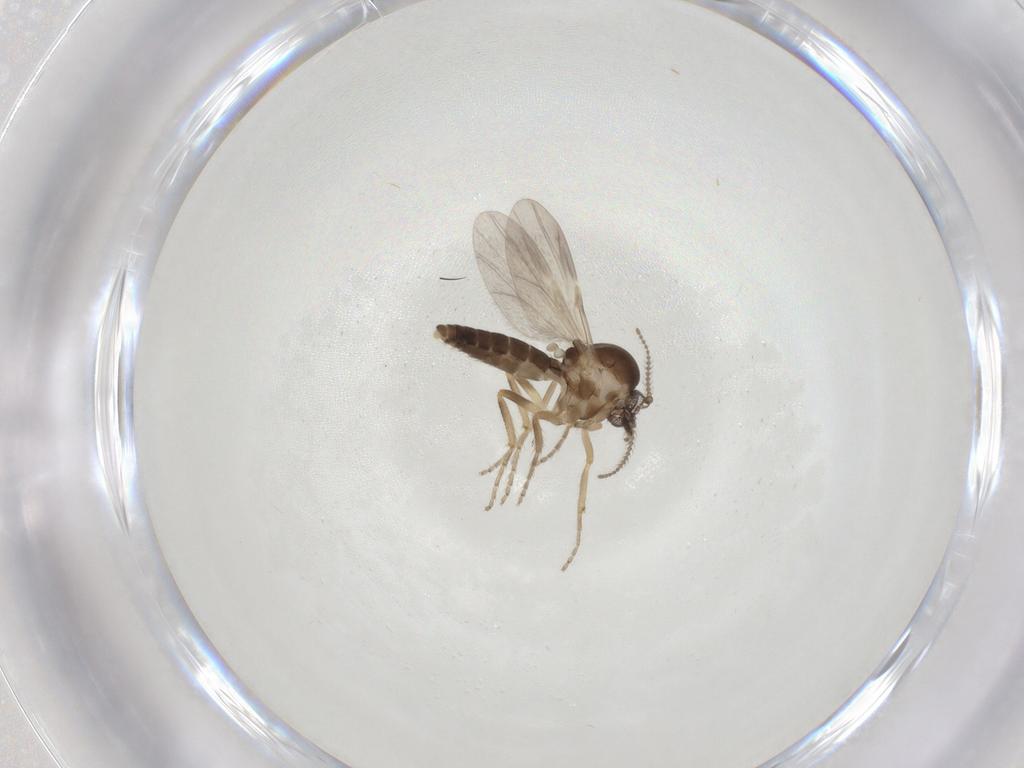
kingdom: Animalia
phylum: Arthropoda
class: Insecta
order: Diptera
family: Ceratopogonidae
